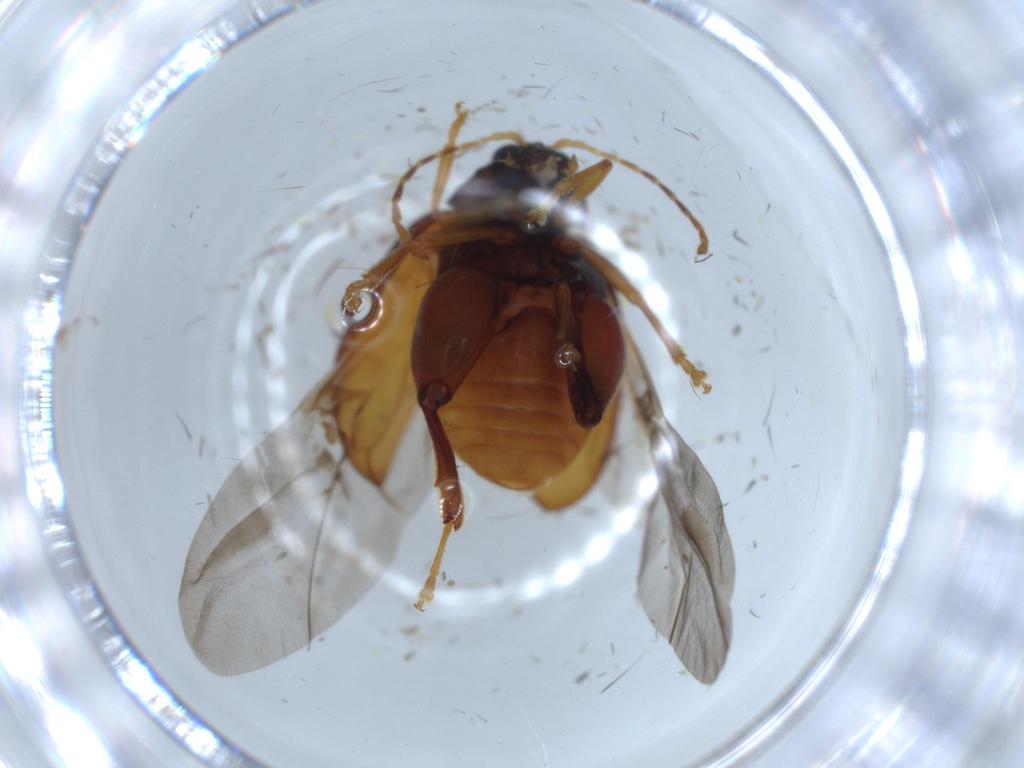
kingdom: Animalia
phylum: Arthropoda
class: Insecta
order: Coleoptera
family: Chrysomelidae
